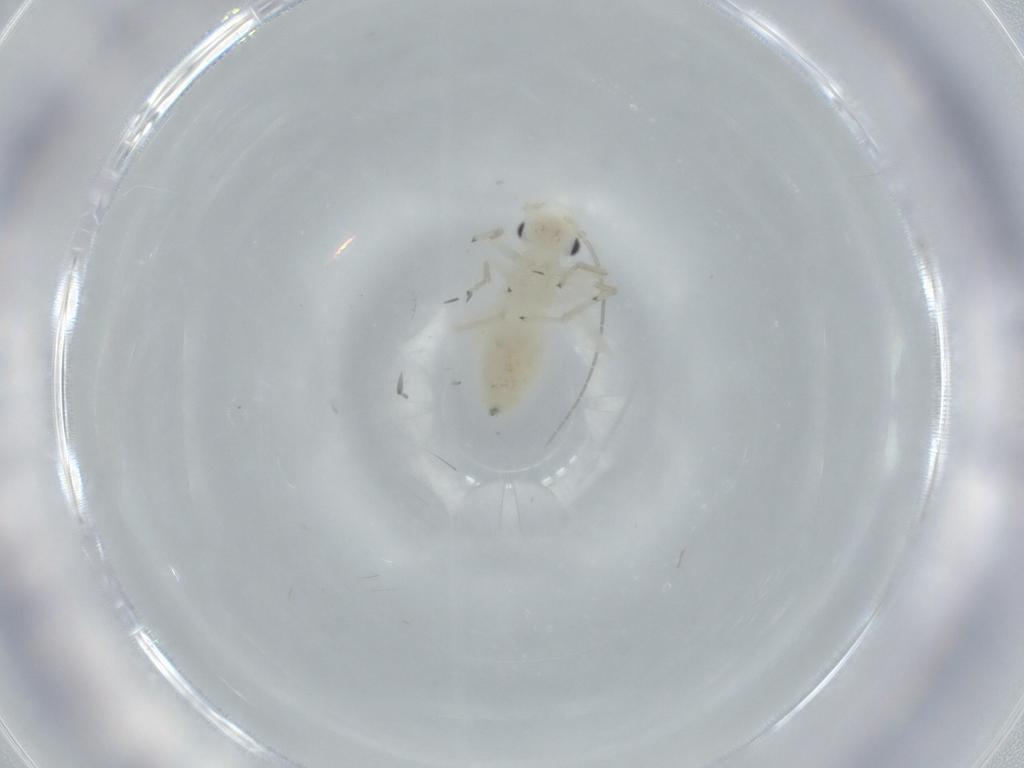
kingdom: Animalia
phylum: Arthropoda
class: Insecta
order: Psocodea
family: Caeciliusidae
